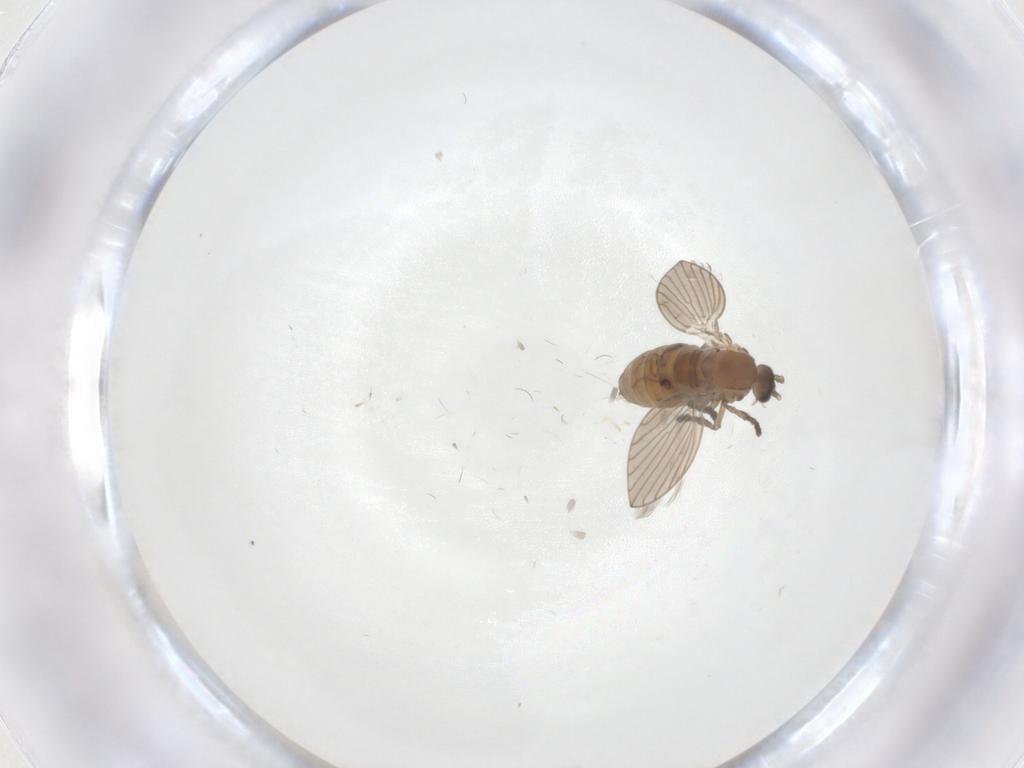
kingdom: Animalia
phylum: Arthropoda
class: Insecta
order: Diptera
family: Psychodidae
